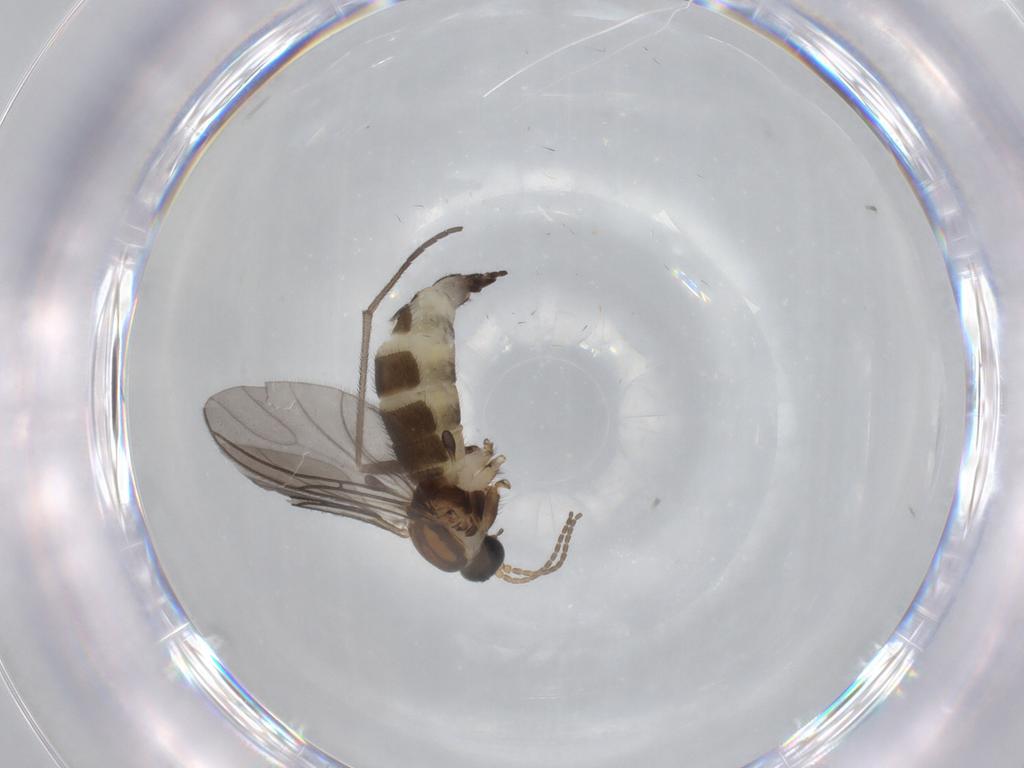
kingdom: Animalia
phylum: Arthropoda
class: Insecta
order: Diptera
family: Sciaridae
